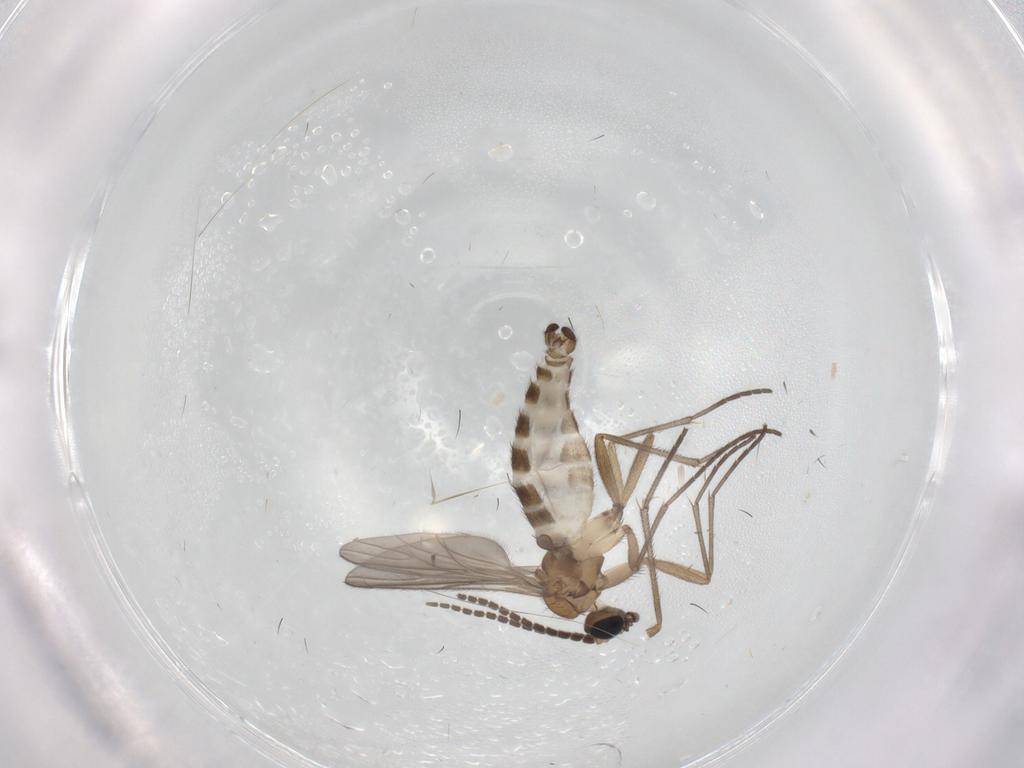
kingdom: Animalia
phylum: Arthropoda
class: Insecta
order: Diptera
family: Sciaridae
